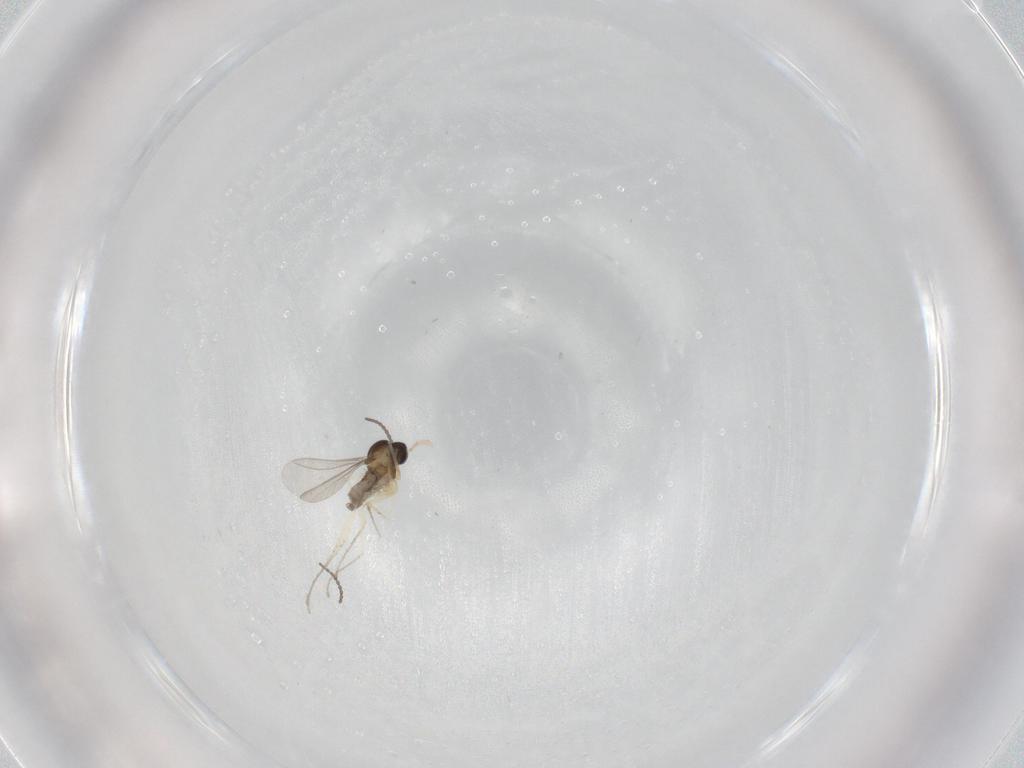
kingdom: Animalia
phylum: Arthropoda
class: Insecta
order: Diptera
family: Cecidomyiidae
